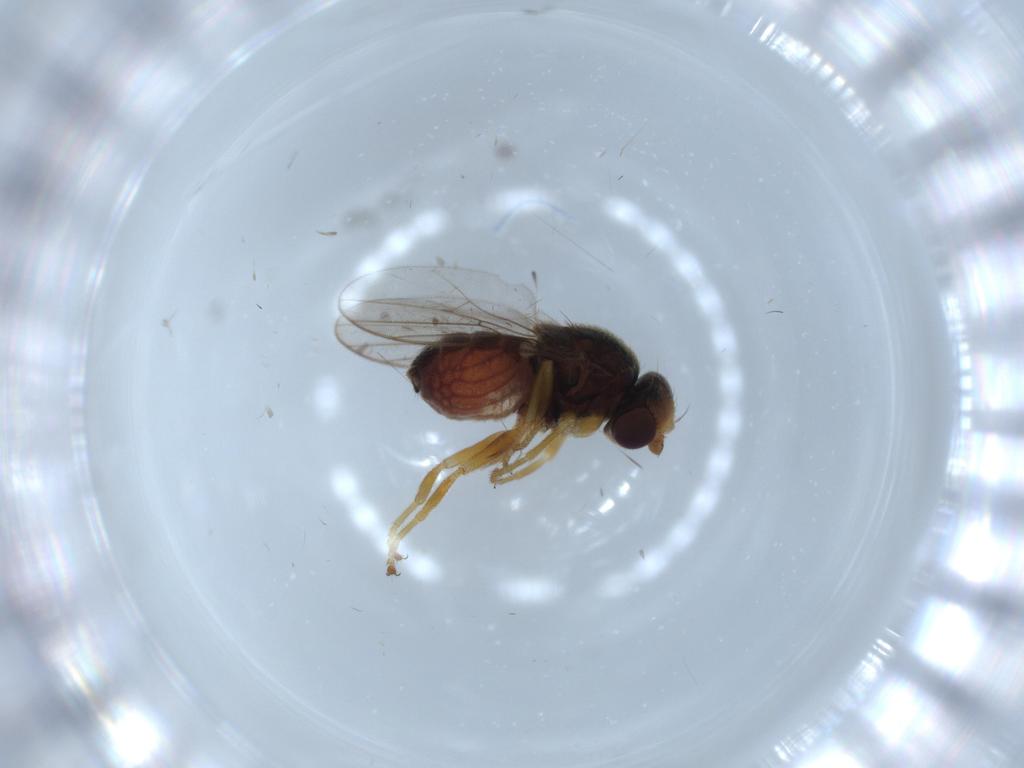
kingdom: Animalia
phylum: Arthropoda
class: Insecta
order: Diptera
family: Chloropidae
